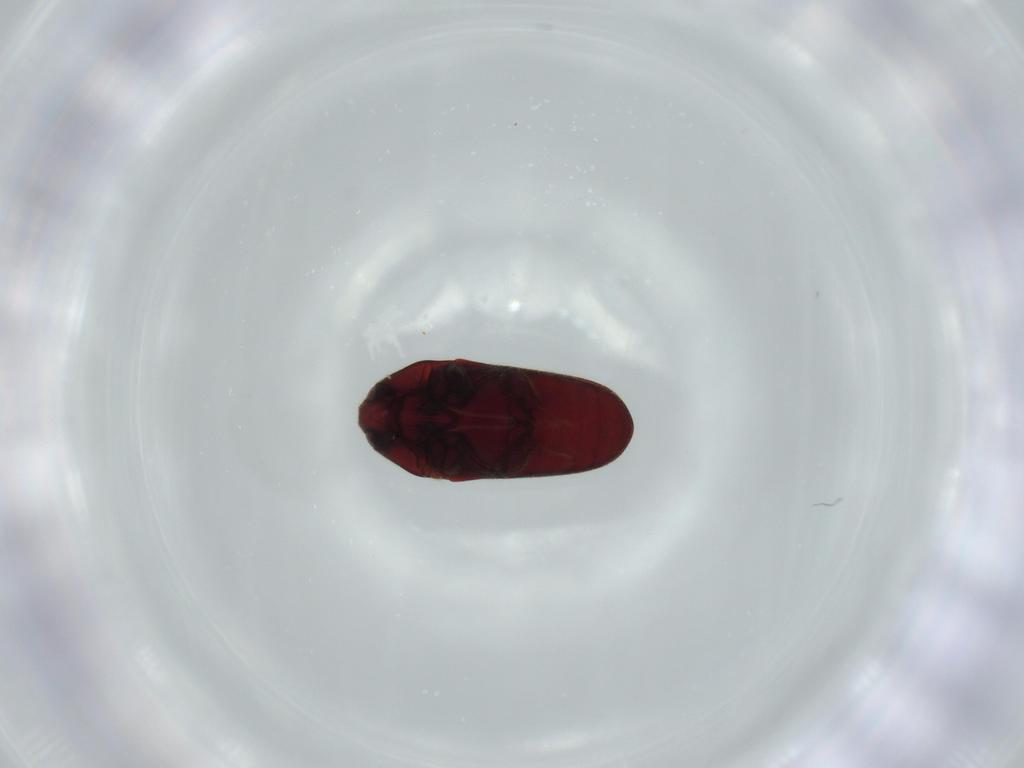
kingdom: Animalia
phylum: Arthropoda
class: Insecta
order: Coleoptera
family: Throscidae
